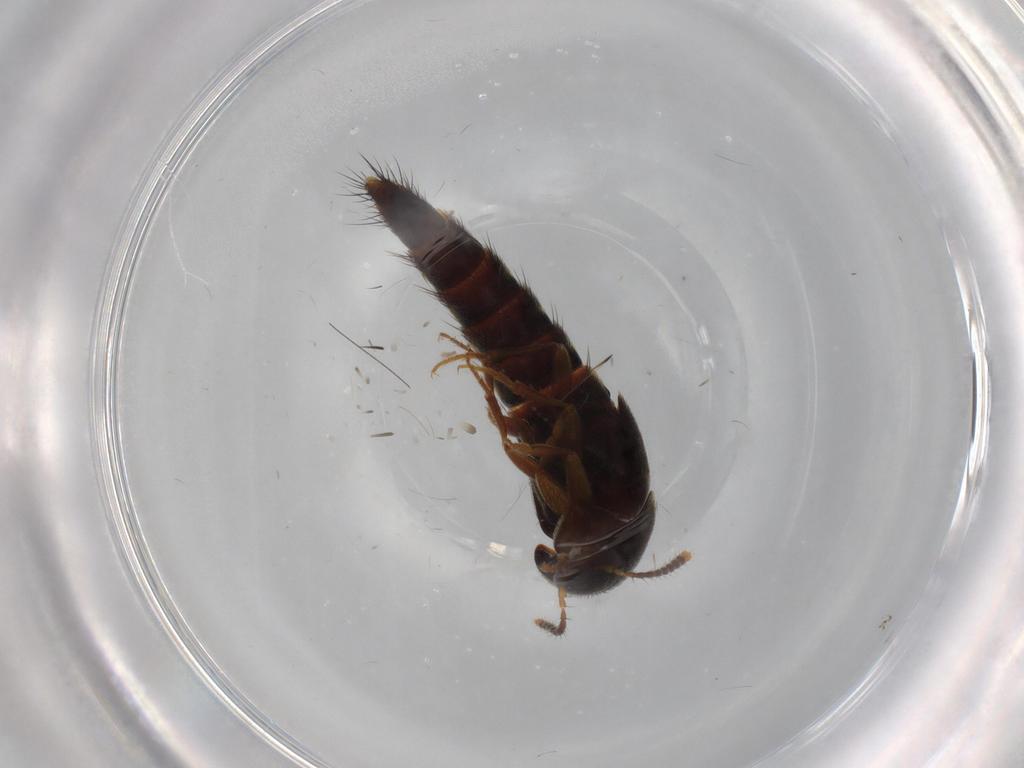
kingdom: Animalia
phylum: Arthropoda
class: Insecta
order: Coleoptera
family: Staphylinidae
